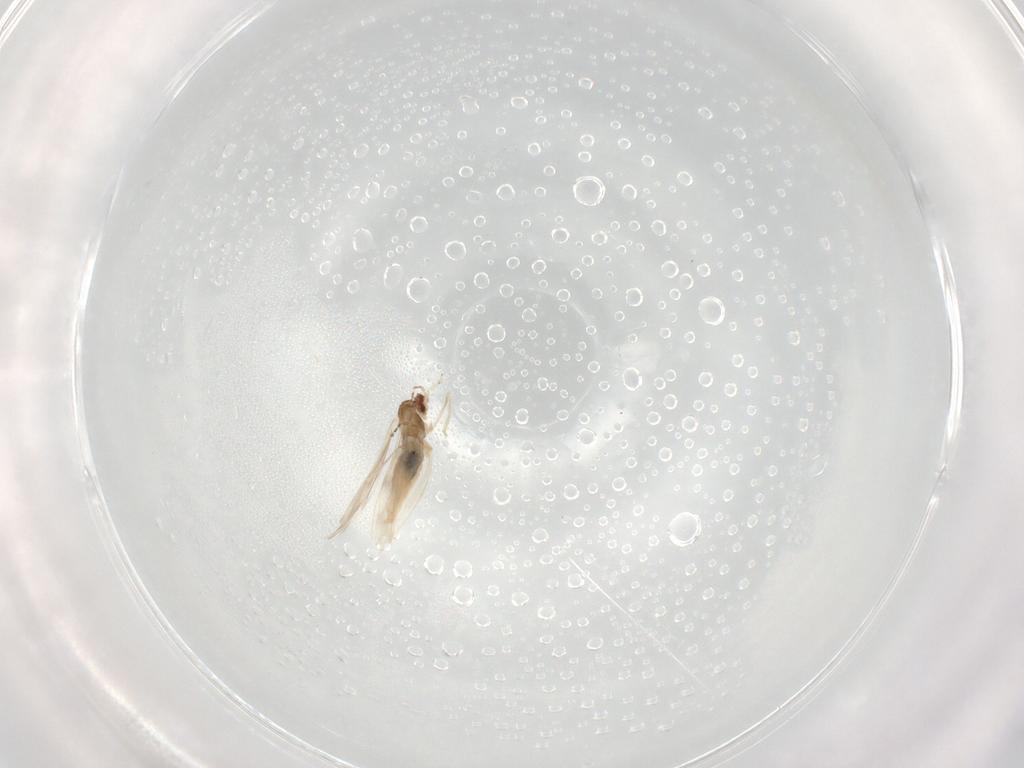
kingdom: Animalia
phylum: Arthropoda
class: Insecta
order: Diptera
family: Cecidomyiidae
